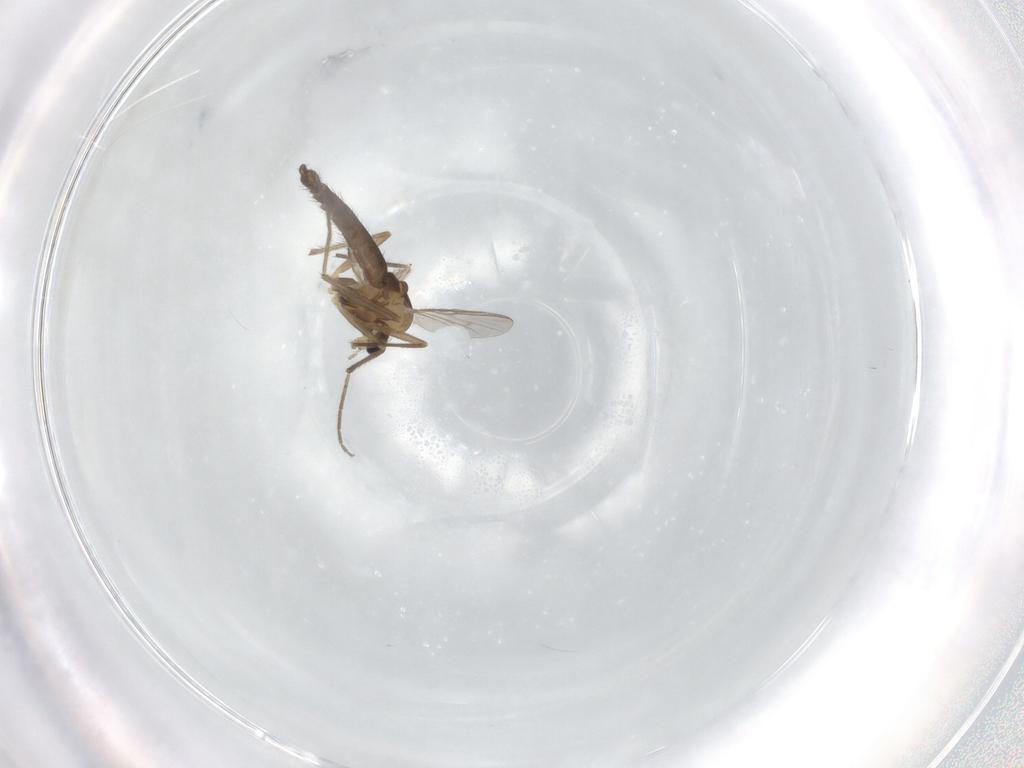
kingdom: Animalia
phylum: Arthropoda
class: Insecta
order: Diptera
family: Chironomidae
